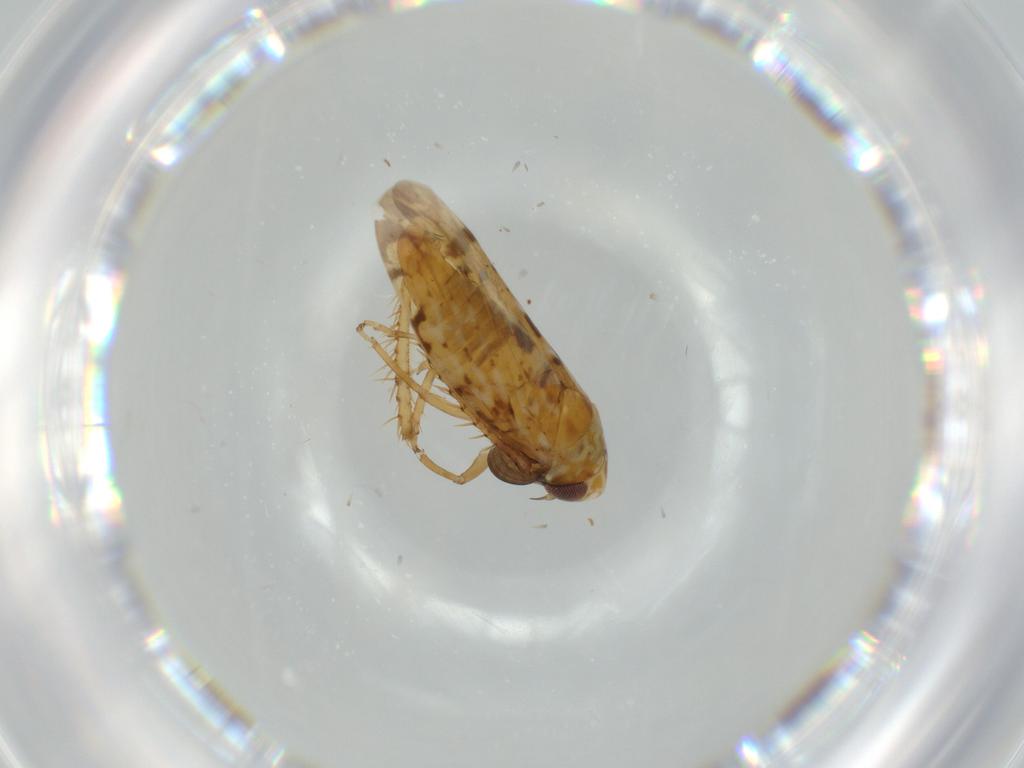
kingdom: Animalia
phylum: Arthropoda
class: Insecta
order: Hemiptera
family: Cicadellidae
